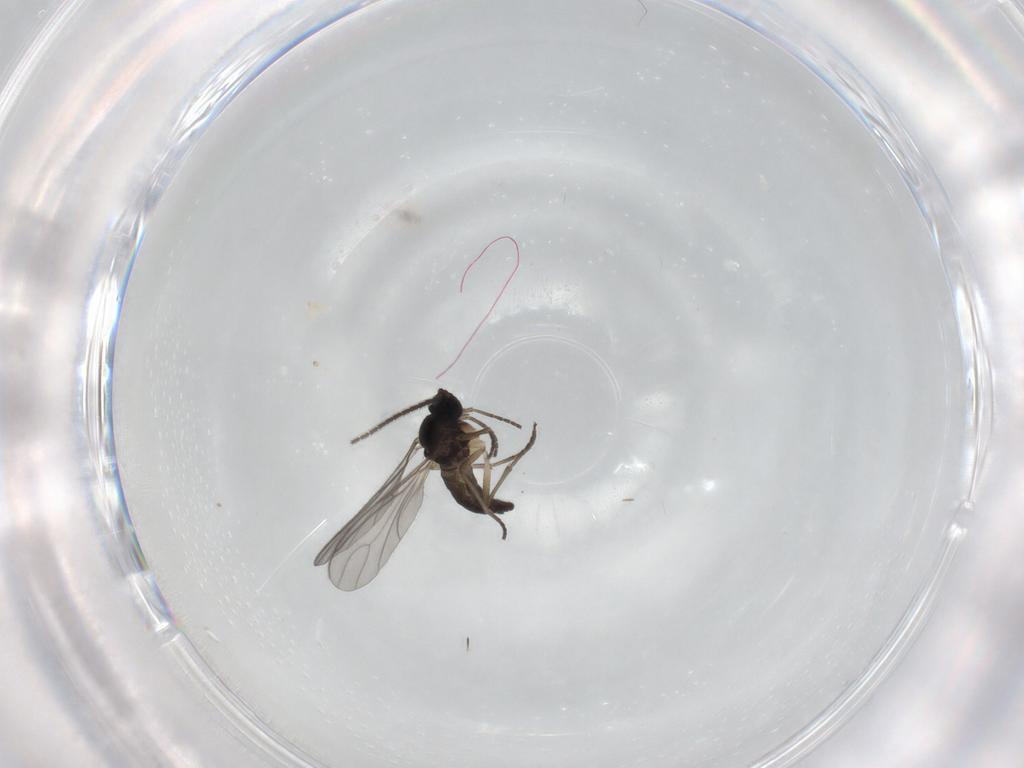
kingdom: Animalia
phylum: Arthropoda
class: Insecta
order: Diptera
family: Sciaridae
